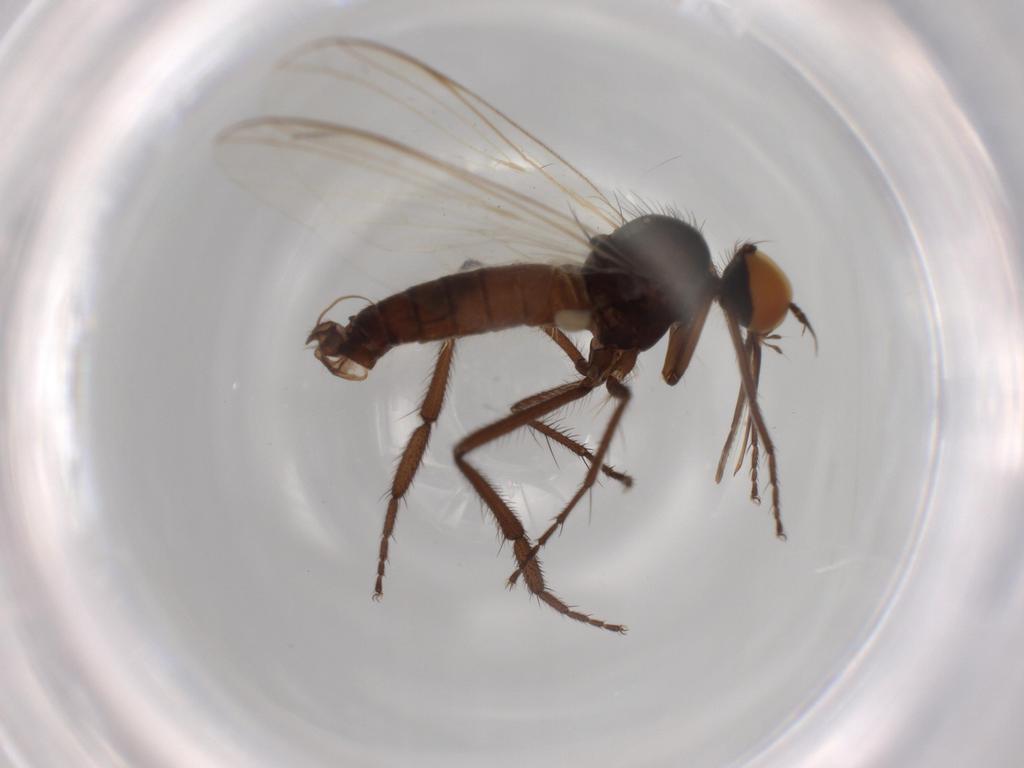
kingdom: Animalia
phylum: Arthropoda
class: Insecta
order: Diptera
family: Empididae
